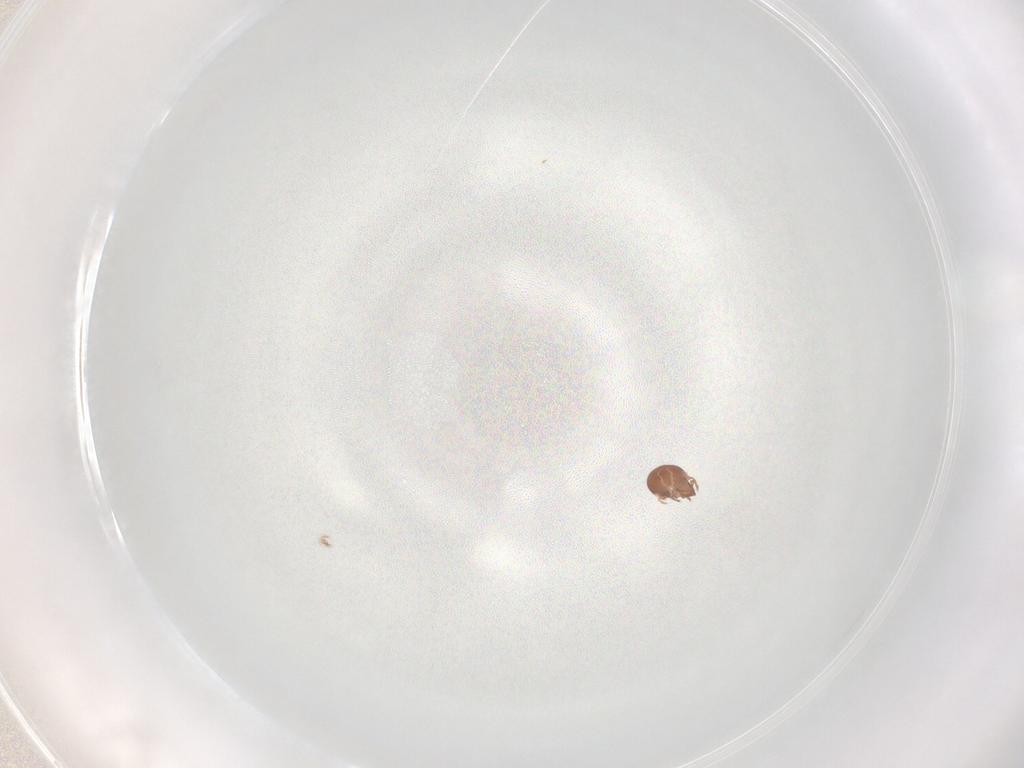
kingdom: Animalia
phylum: Arthropoda
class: Arachnida
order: Sarcoptiformes
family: Scheloribatidae
